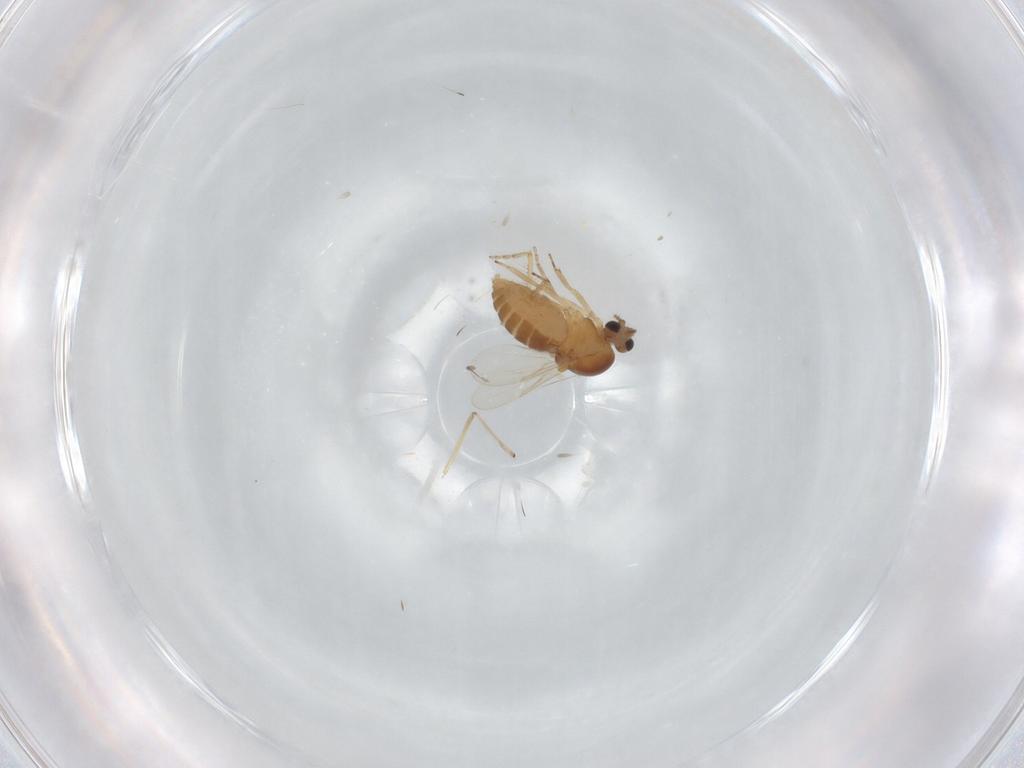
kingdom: Animalia
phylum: Arthropoda
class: Insecta
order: Diptera
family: Ceratopogonidae
